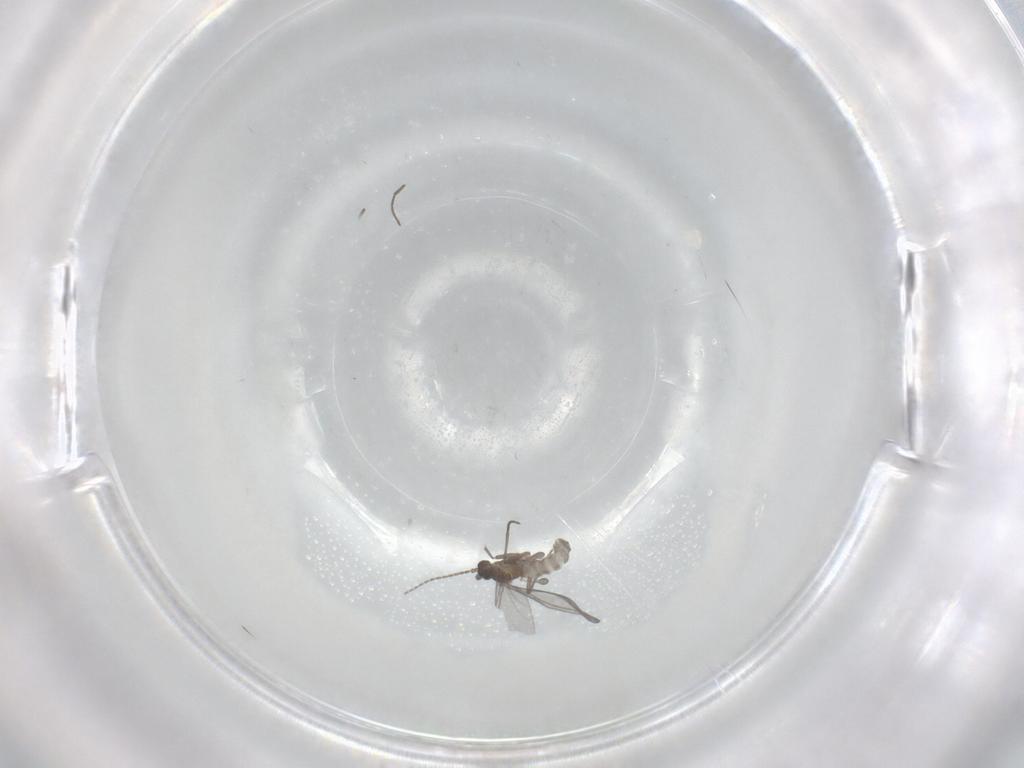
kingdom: Animalia
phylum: Arthropoda
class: Insecta
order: Diptera
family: Sciaridae
